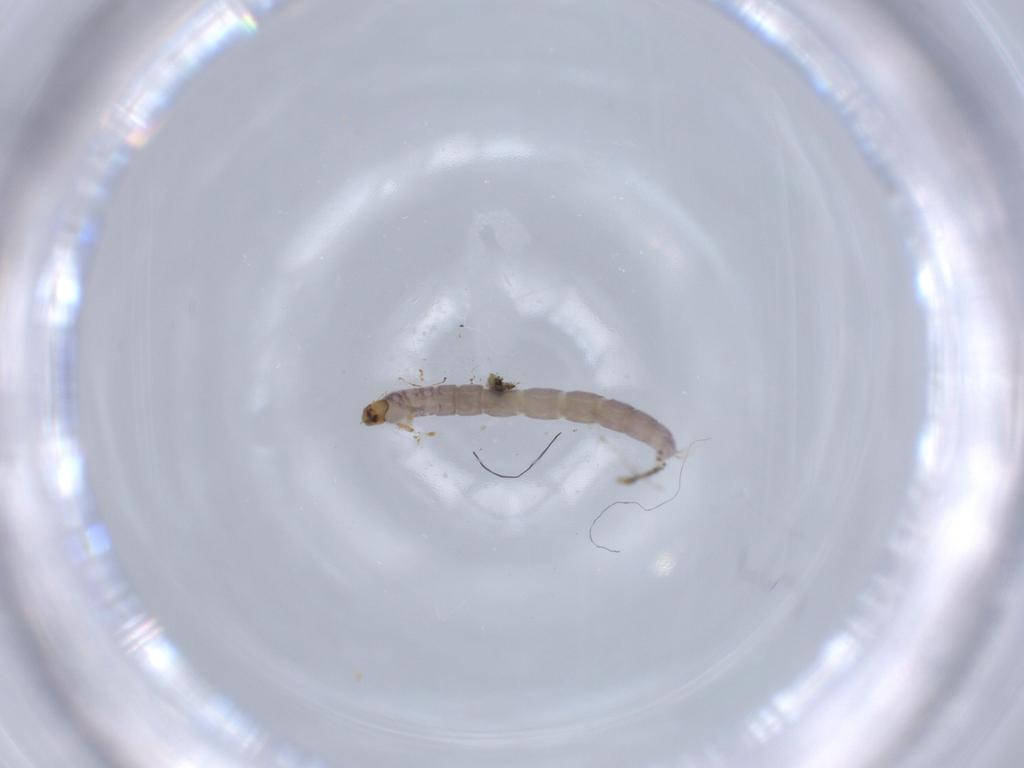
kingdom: Animalia
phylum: Arthropoda
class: Insecta
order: Diptera
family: Chironomidae
